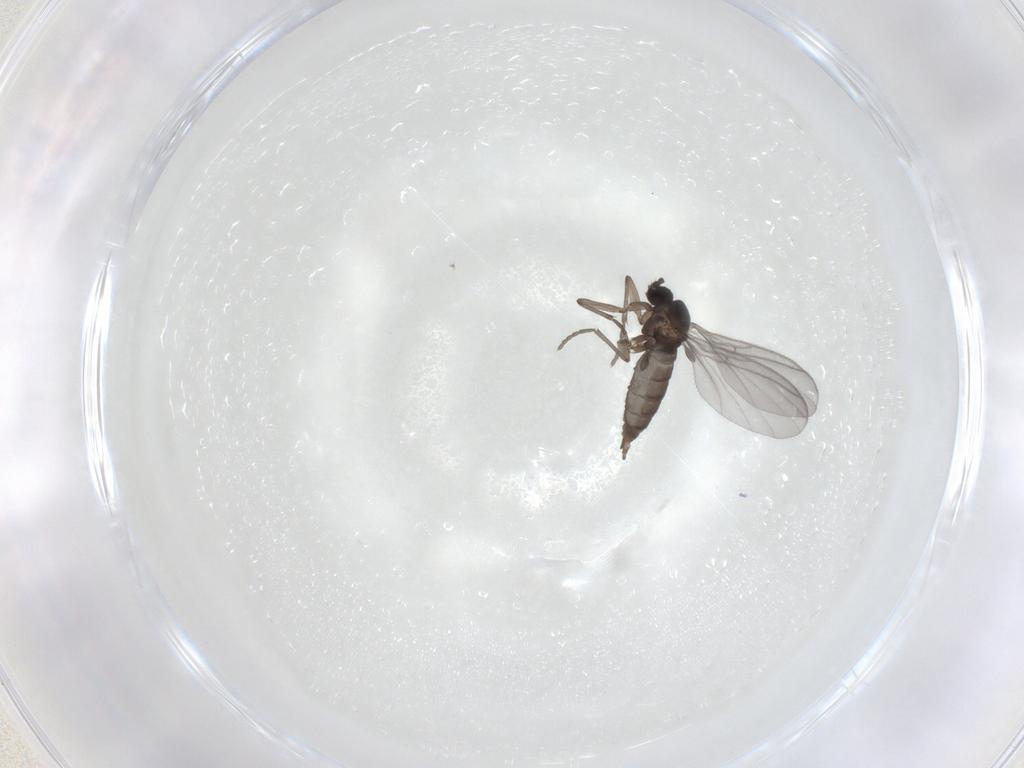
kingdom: Animalia
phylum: Arthropoda
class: Insecta
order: Diptera
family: Sciaridae
